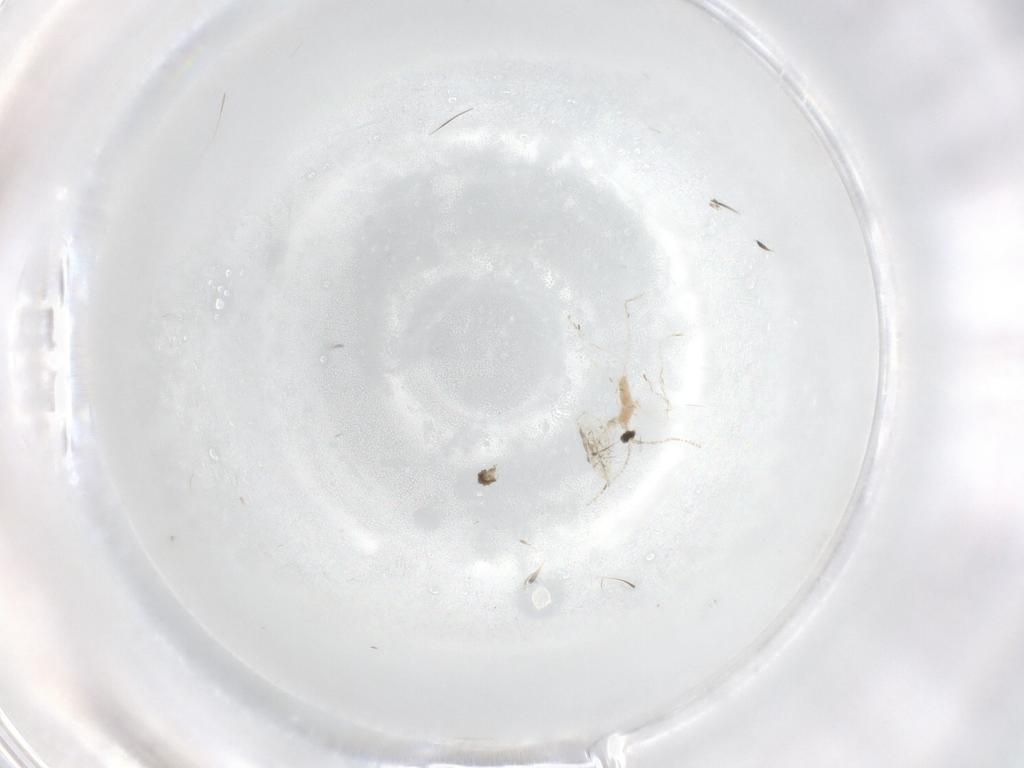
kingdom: Animalia
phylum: Arthropoda
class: Insecta
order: Diptera
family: Cecidomyiidae
